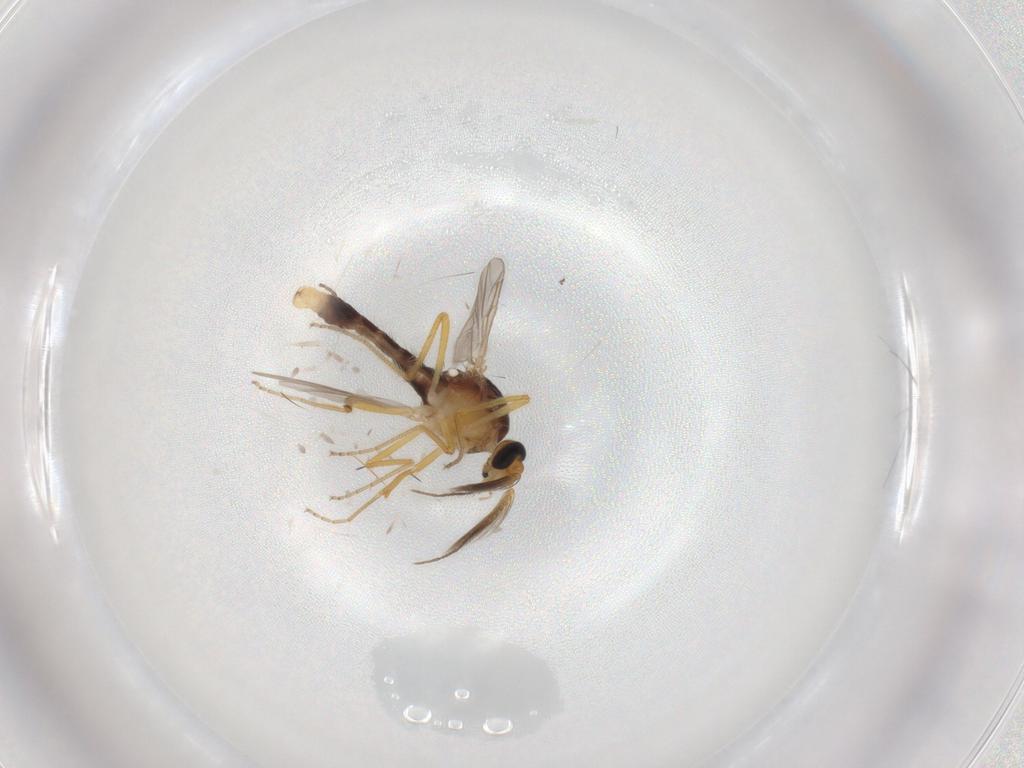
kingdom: Animalia
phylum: Arthropoda
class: Insecta
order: Diptera
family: Ceratopogonidae
